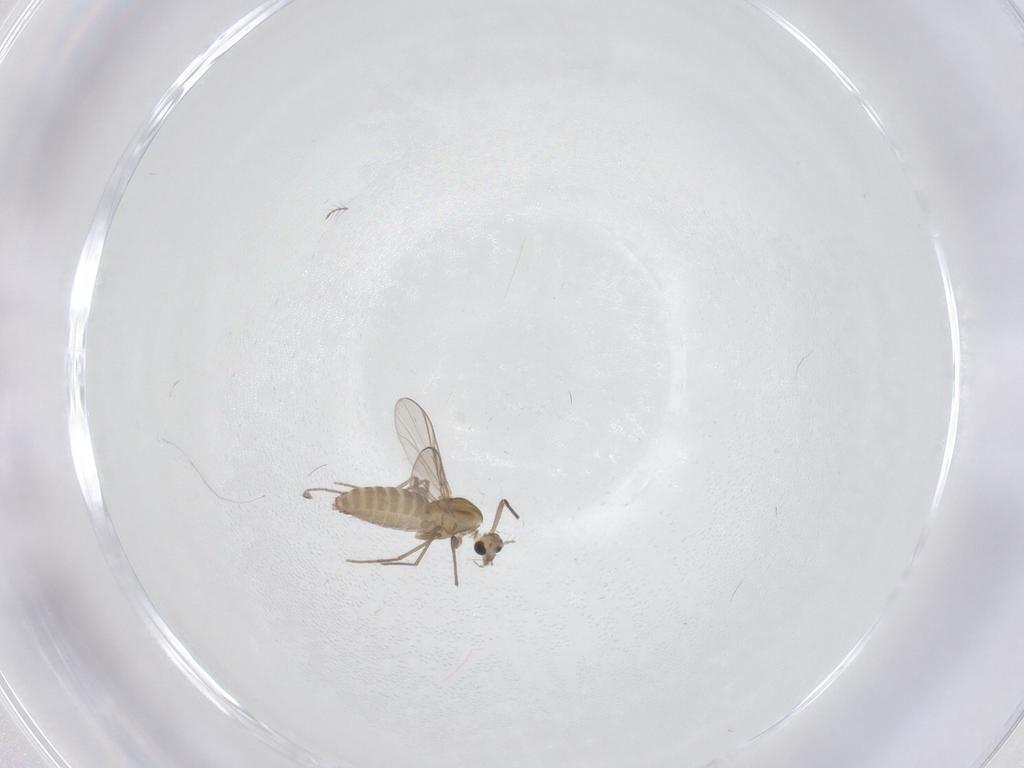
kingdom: Animalia
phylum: Arthropoda
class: Insecta
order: Diptera
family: Chironomidae
